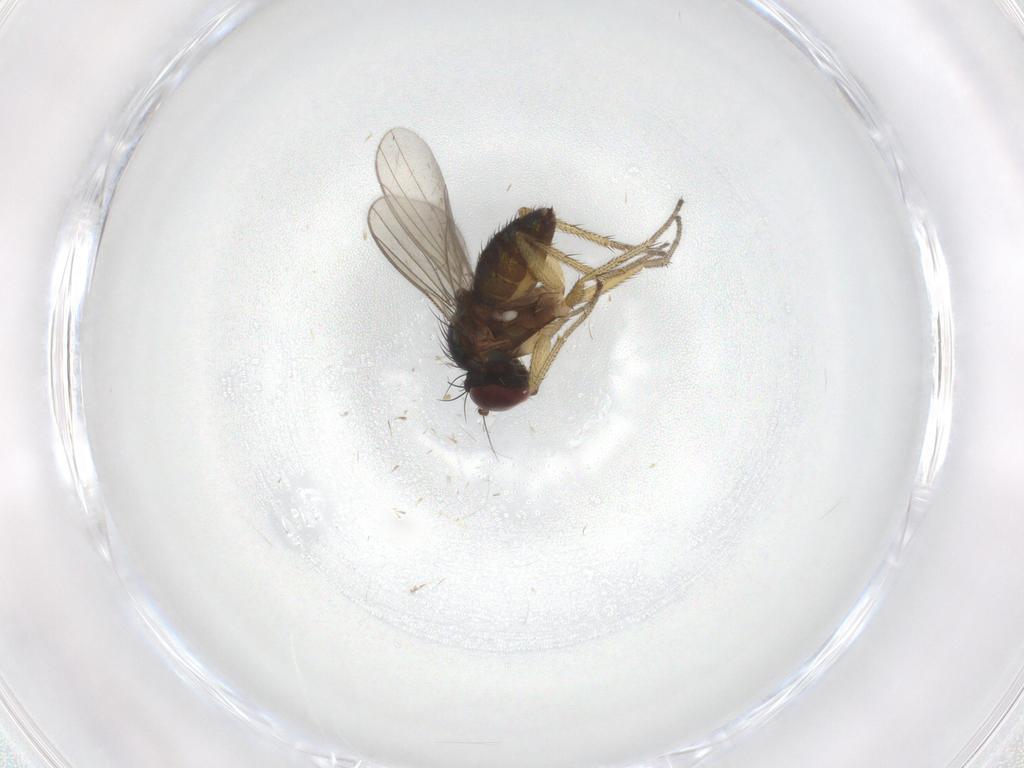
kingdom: Animalia
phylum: Arthropoda
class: Insecta
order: Diptera
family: Dolichopodidae
